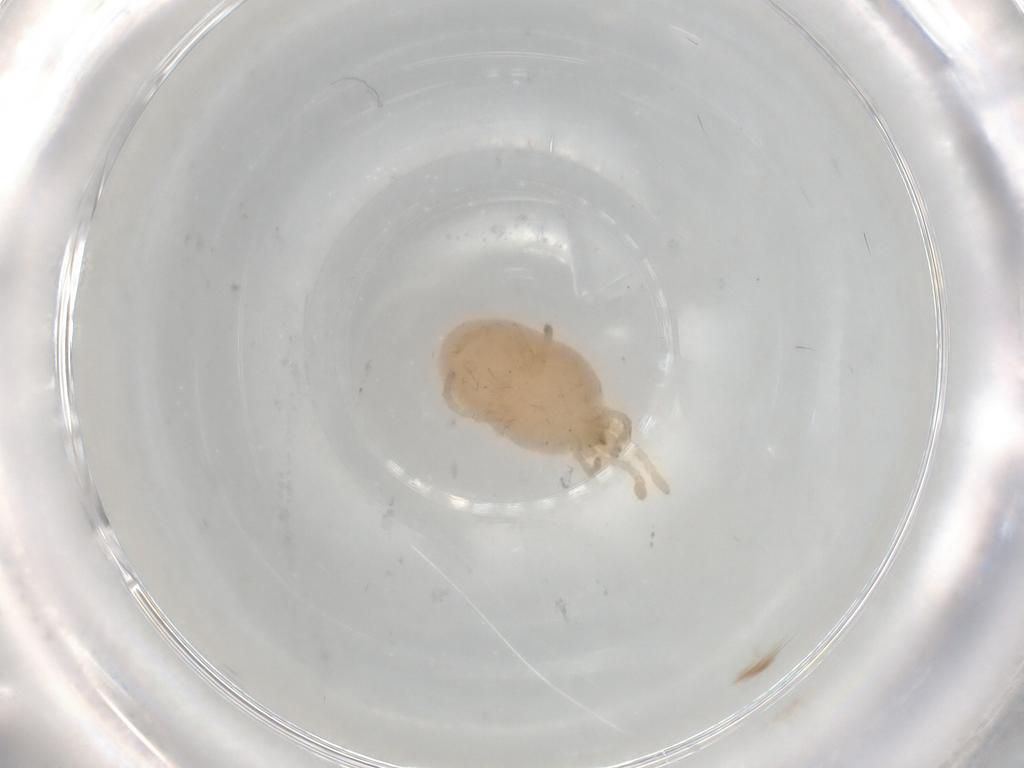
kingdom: Animalia
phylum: Arthropoda
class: Arachnida
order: Trombidiformes
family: Microtrombidiidae
